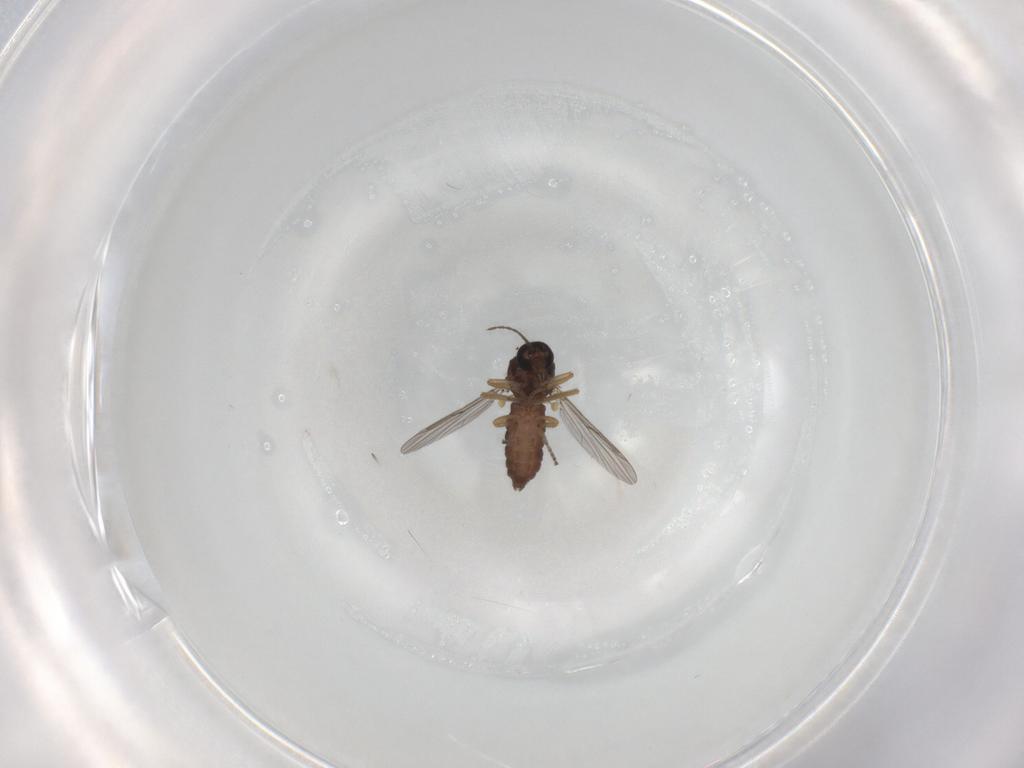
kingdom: Animalia
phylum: Arthropoda
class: Insecta
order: Diptera
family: Ceratopogonidae
